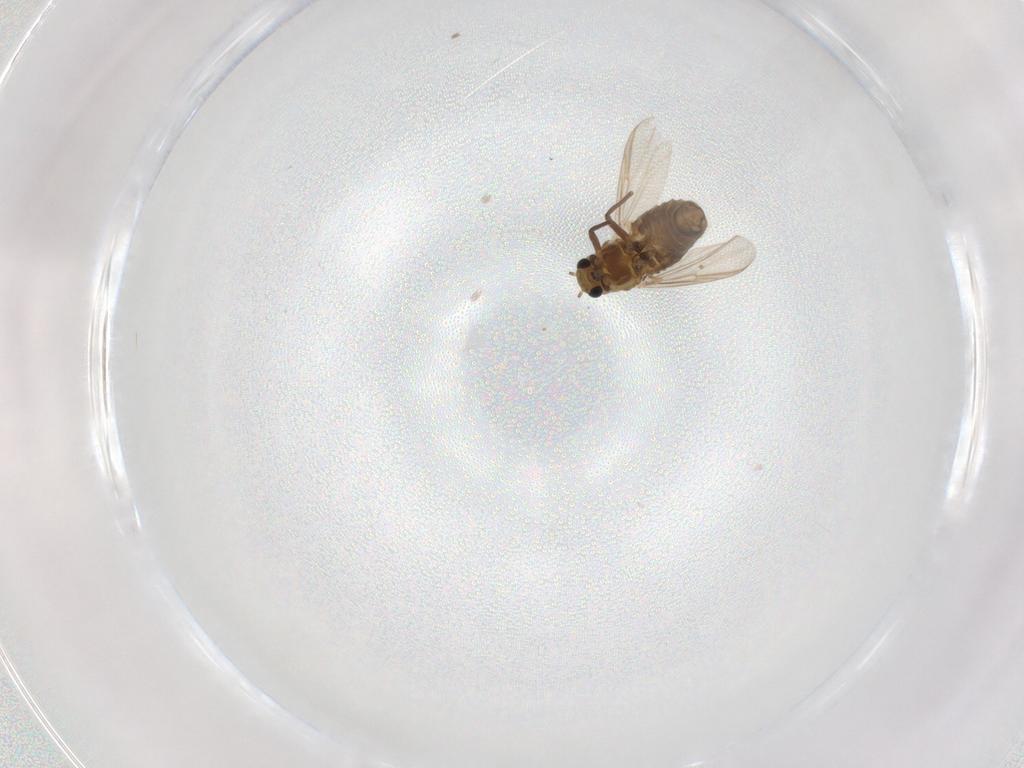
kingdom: Animalia
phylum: Arthropoda
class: Insecta
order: Diptera
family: Chironomidae
